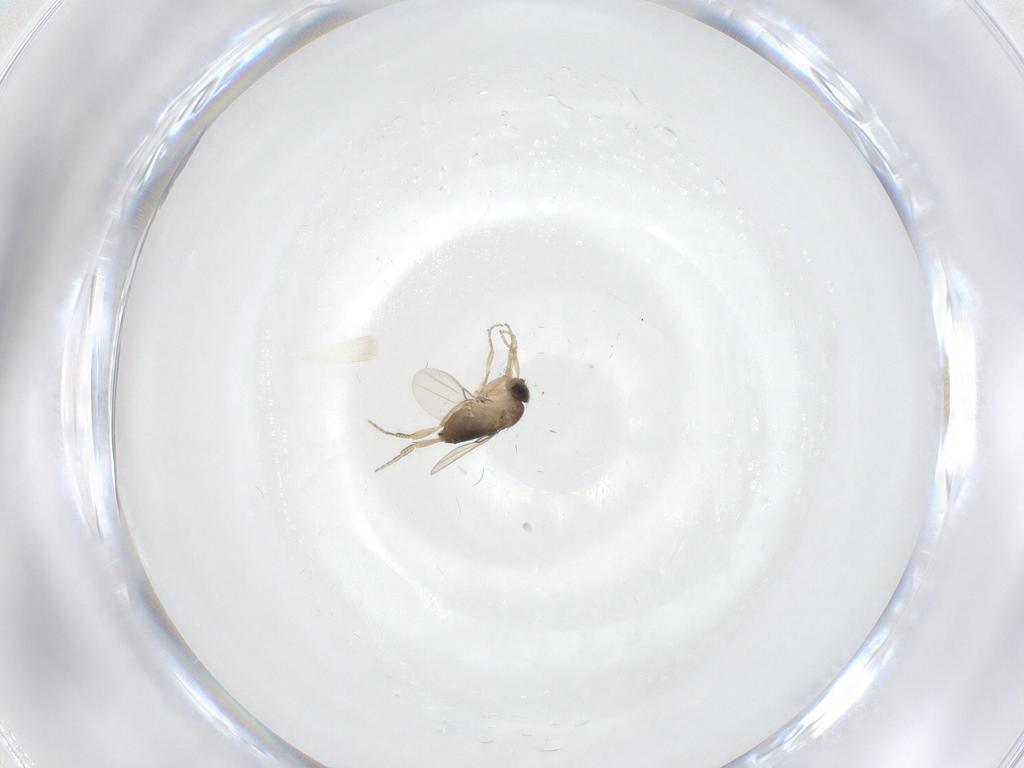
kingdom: Animalia
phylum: Arthropoda
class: Insecta
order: Diptera
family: Phoridae
